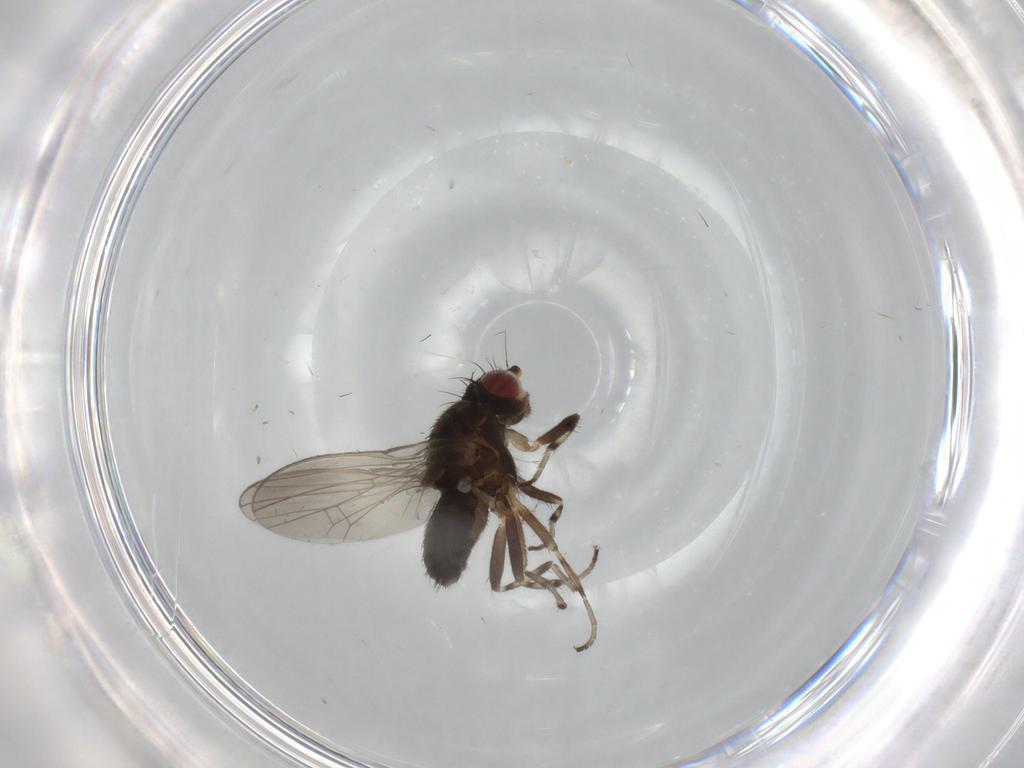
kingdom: Animalia
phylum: Arthropoda
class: Insecta
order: Diptera
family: Heleomyzidae
